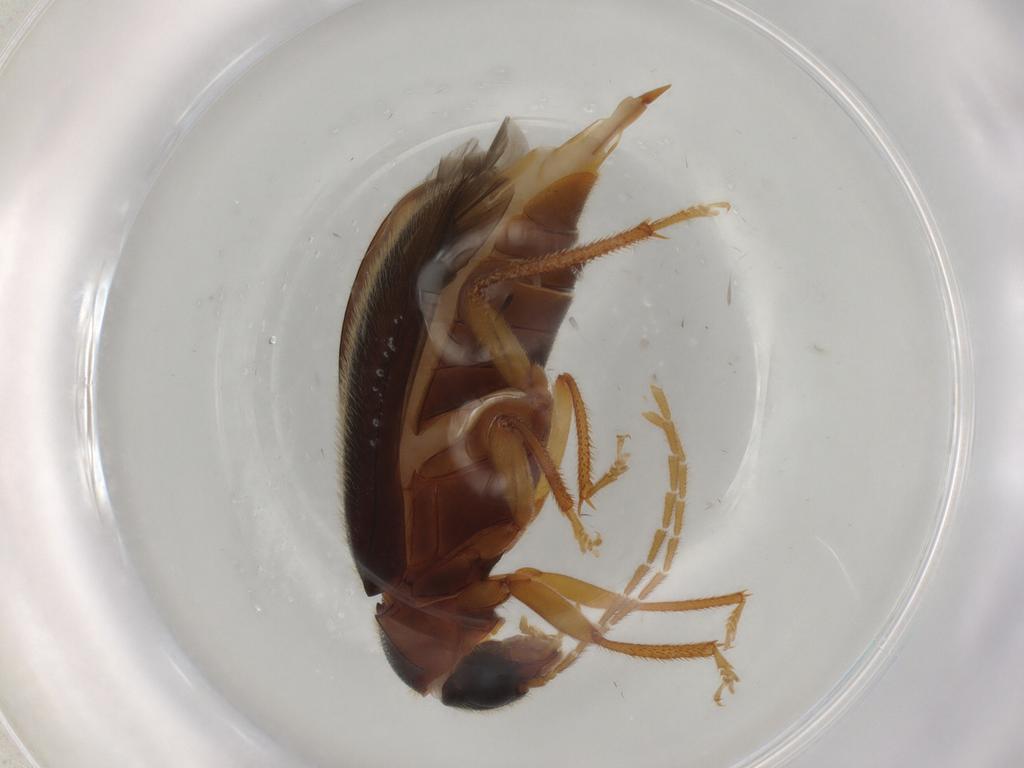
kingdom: Animalia
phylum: Arthropoda
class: Insecta
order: Coleoptera
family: Ptilodactylidae
